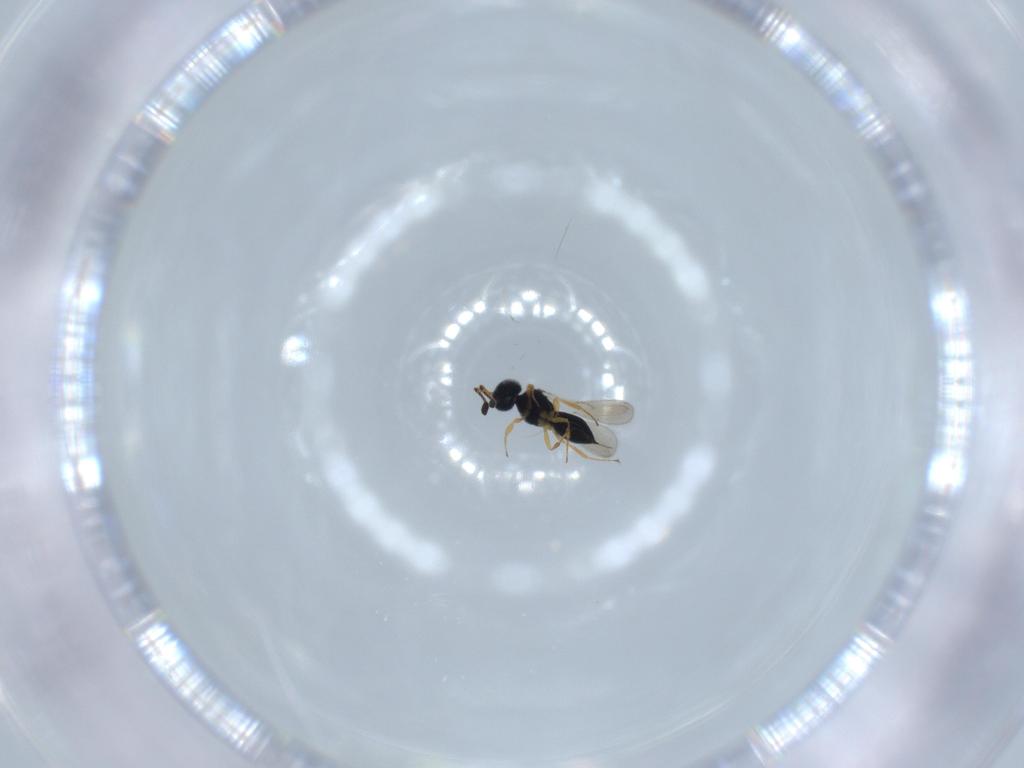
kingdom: Animalia
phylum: Arthropoda
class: Insecta
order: Hymenoptera
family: Scelionidae
